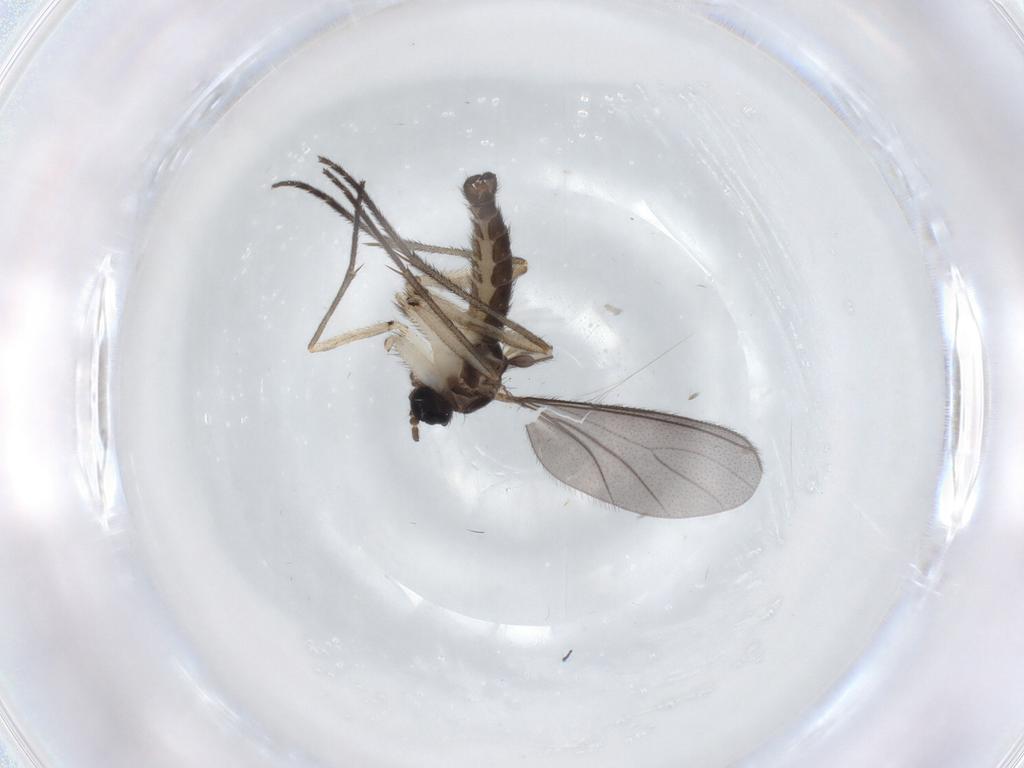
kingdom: Animalia
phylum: Arthropoda
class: Insecta
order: Diptera
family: Sciaridae
